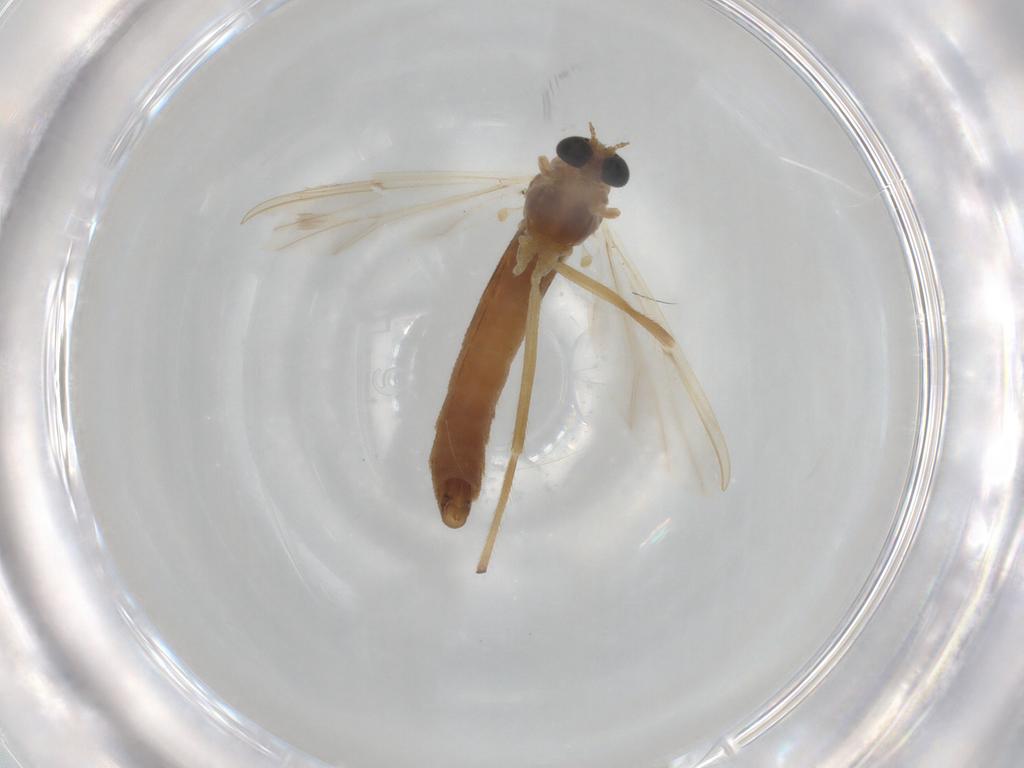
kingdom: Animalia
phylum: Arthropoda
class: Insecta
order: Diptera
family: Chironomidae
